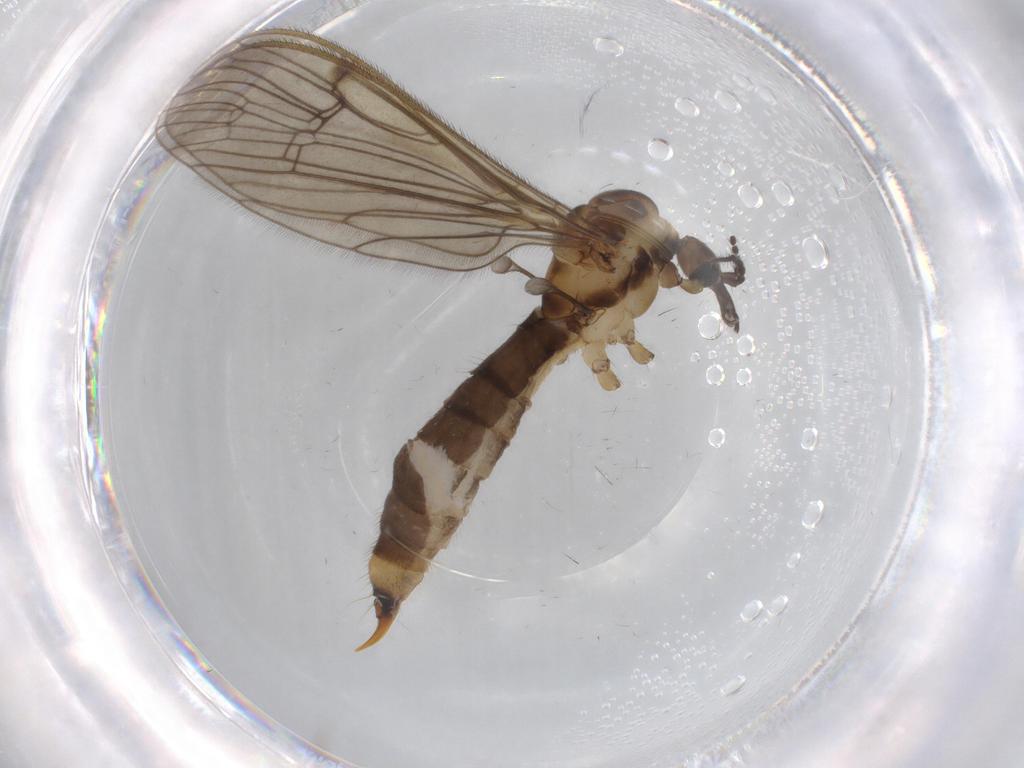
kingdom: Animalia
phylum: Arthropoda
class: Insecta
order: Diptera
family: Limoniidae
